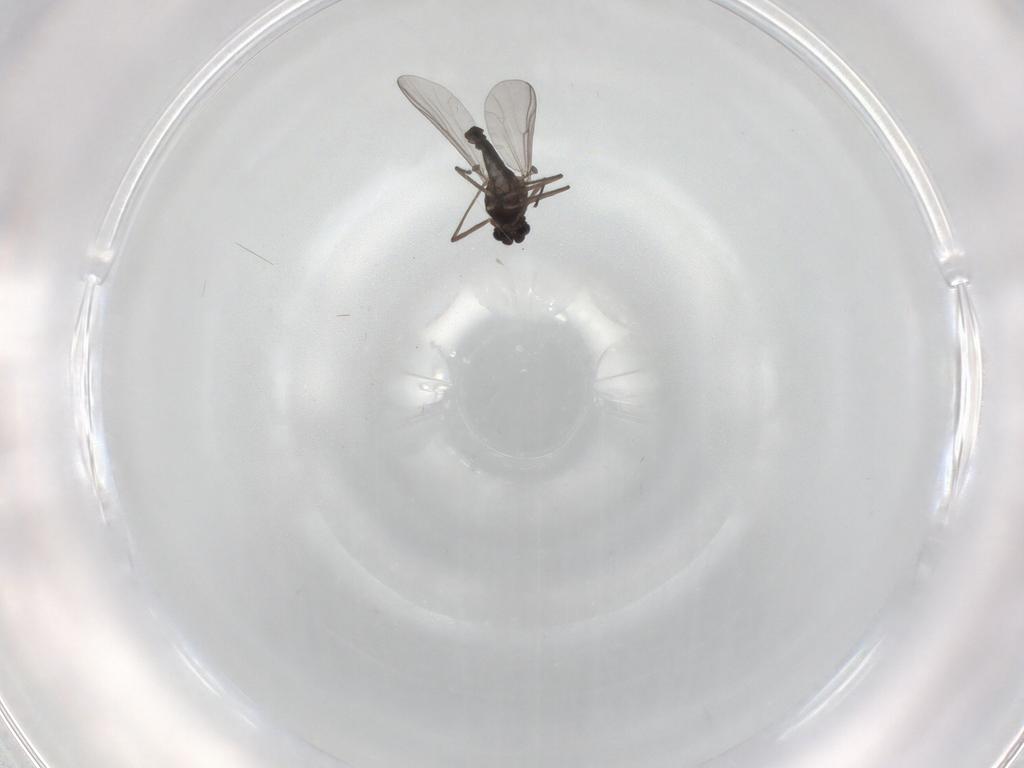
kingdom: Animalia
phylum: Arthropoda
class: Insecta
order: Diptera
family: Chironomidae
